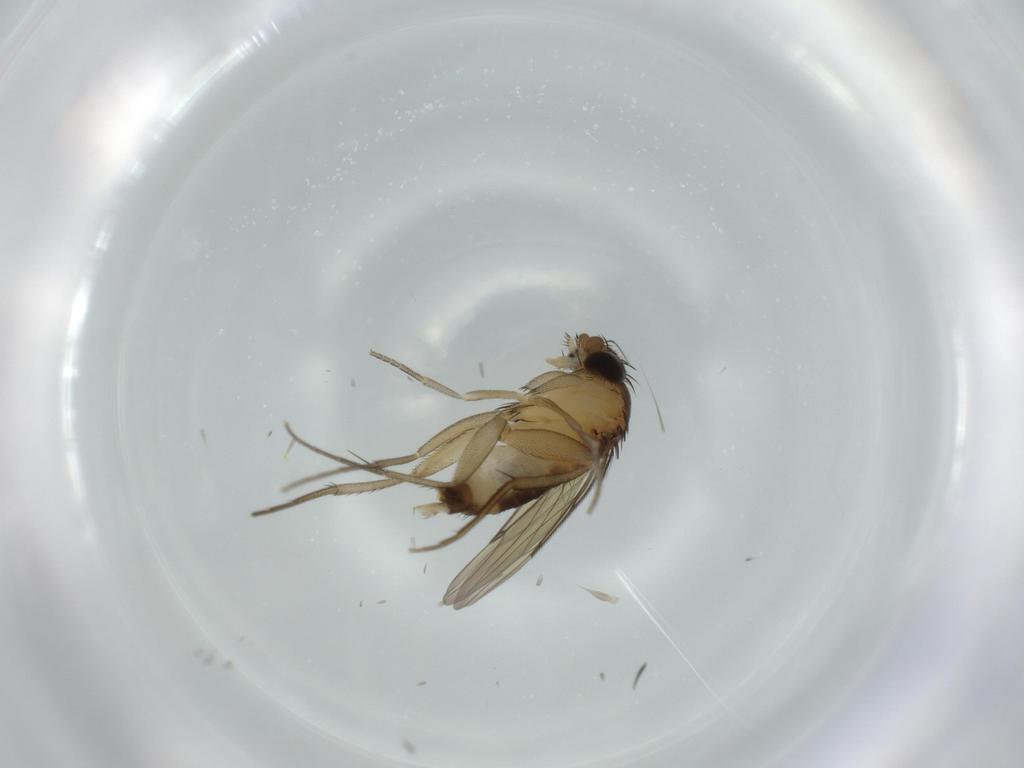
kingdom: Animalia
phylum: Arthropoda
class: Insecta
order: Diptera
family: Phoridae
